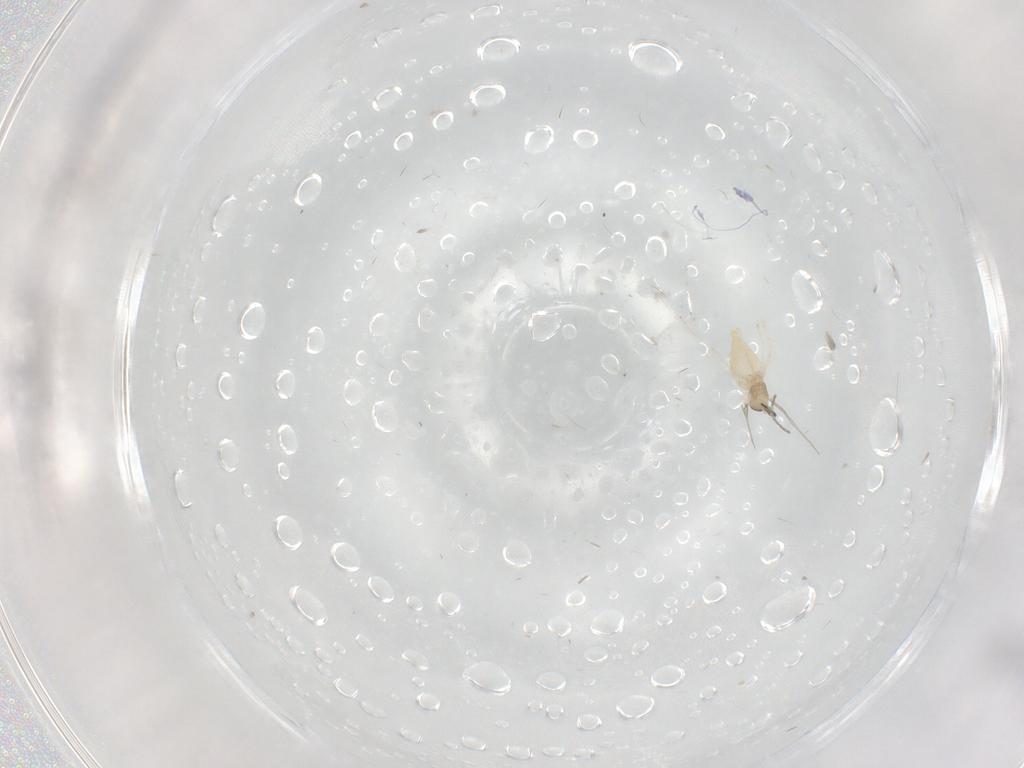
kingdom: Animalia
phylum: Arthropoda
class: Insecta
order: Diptera
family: Cecidomyiidae
